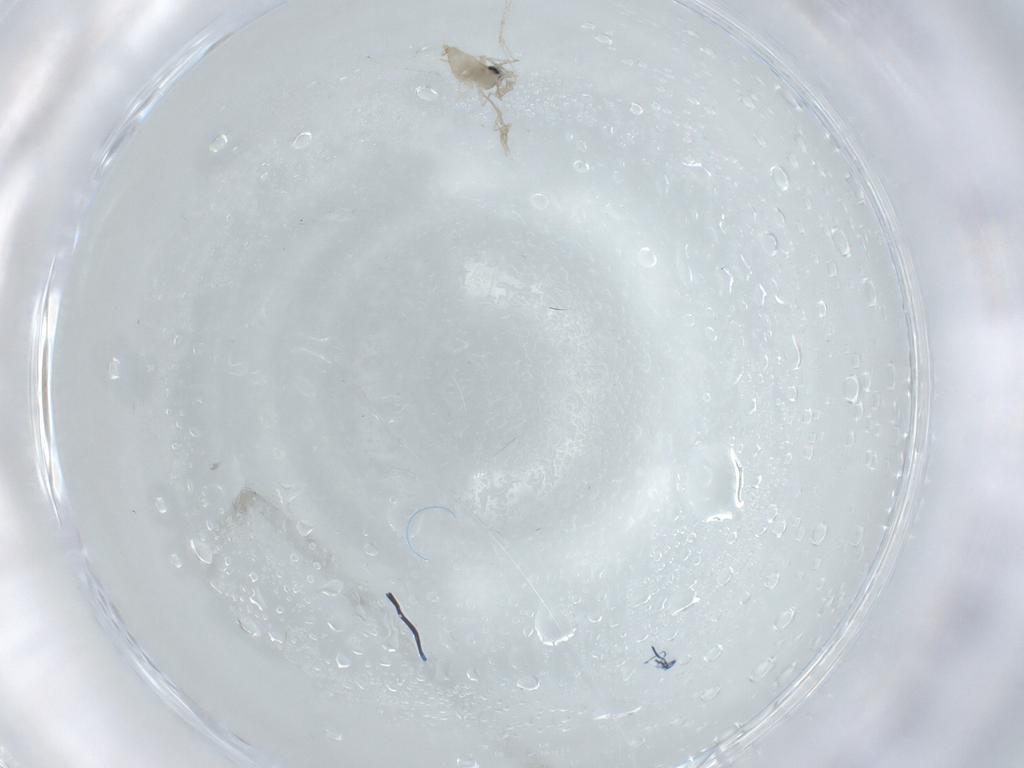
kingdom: Animalia
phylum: Arthropoda
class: Insecta
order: Diptera
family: Cecidomyiidae
